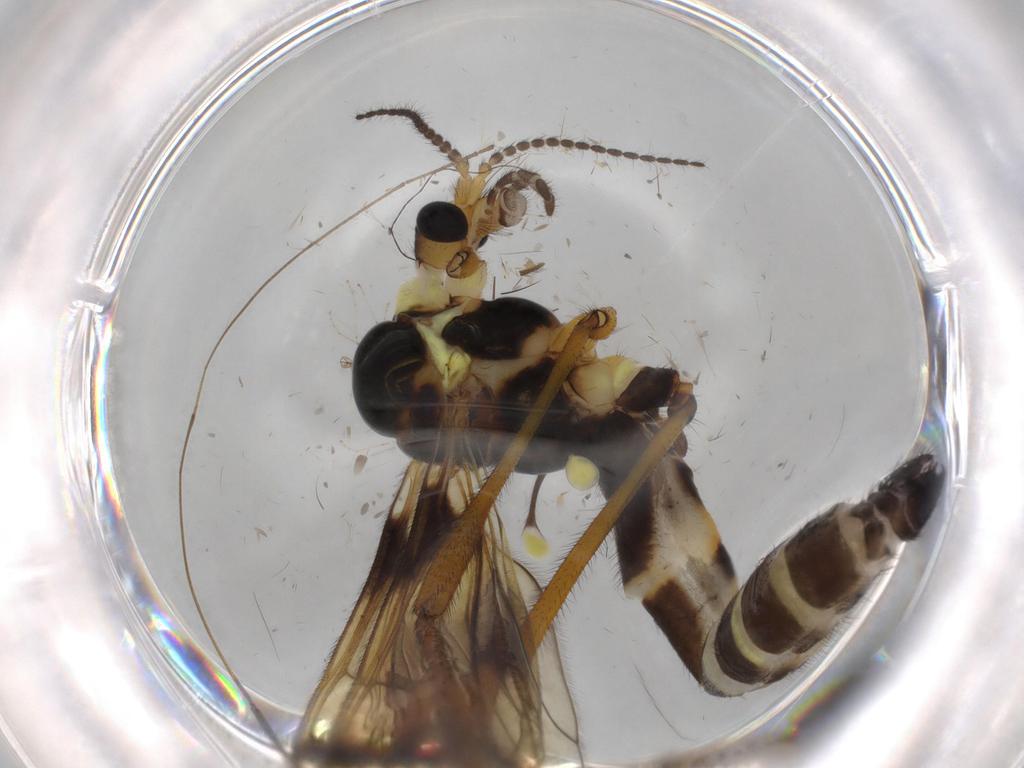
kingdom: Animalia
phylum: Arthropoda
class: Insecta
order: Diptera
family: Limoniidae
